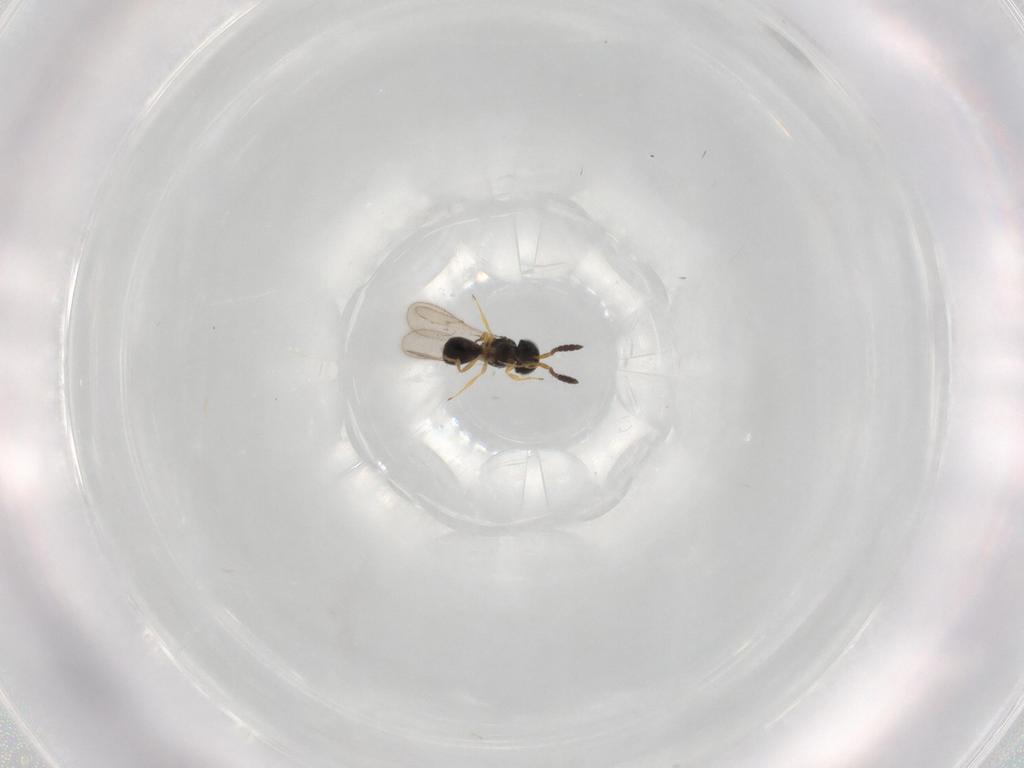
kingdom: Animalia
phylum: Arthropoda
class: Insecta
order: Hymenoptera
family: Scelionidae
